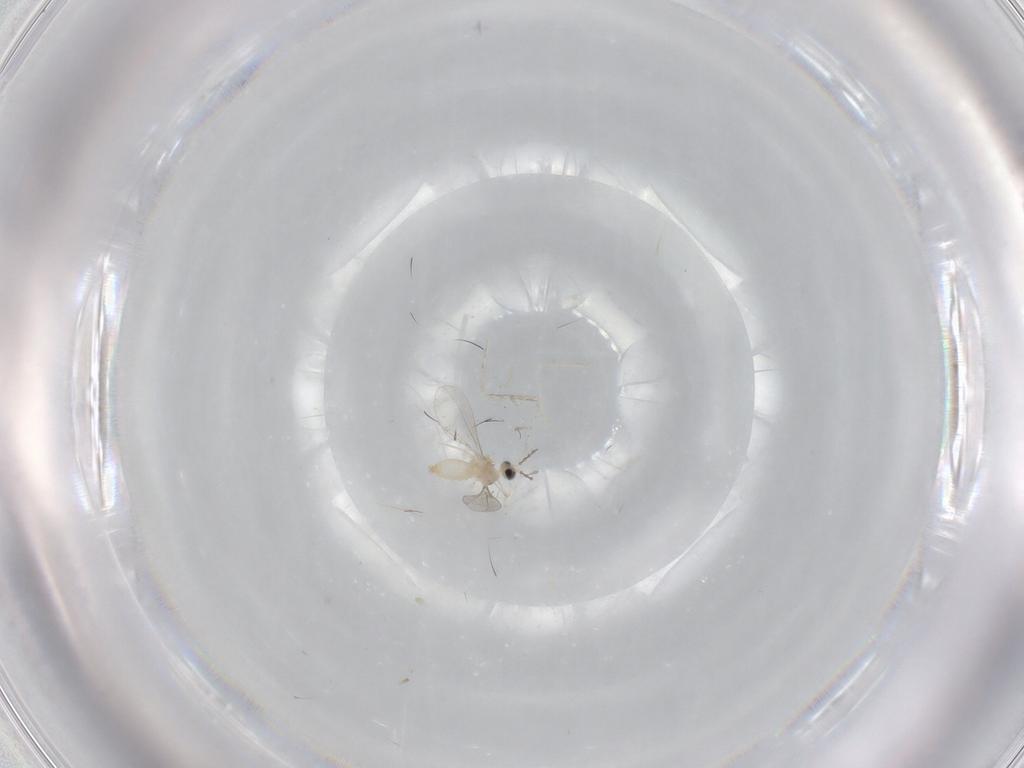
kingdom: Animalia
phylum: Arthropoda
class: Insecta
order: Diptera
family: Cecidomyiidae
